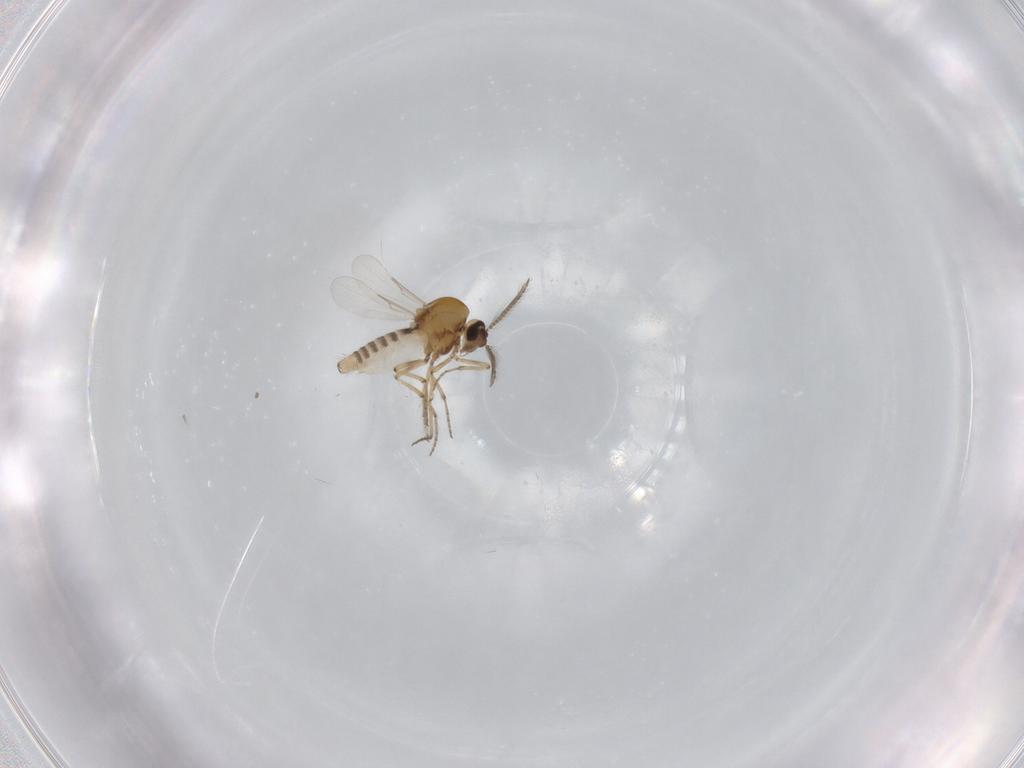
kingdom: Animalia
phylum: Arthropoda
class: Insecta
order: Diptera
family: Ceratopogonidae
